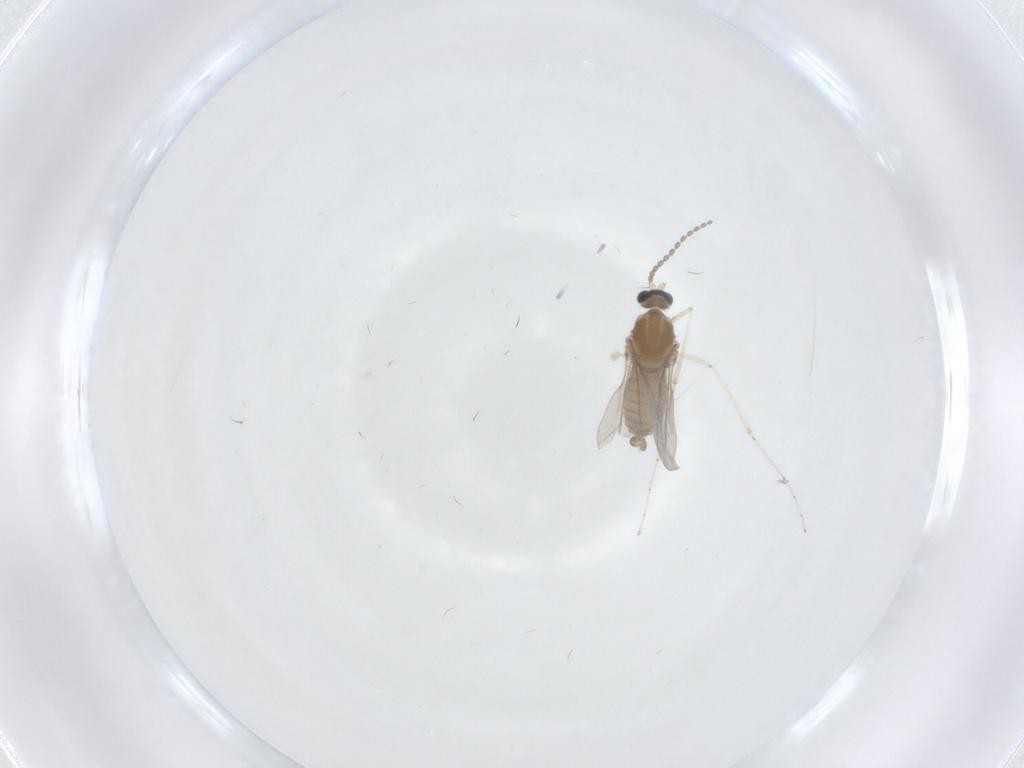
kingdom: Animalia
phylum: Arthropoda
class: Insecta
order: Diptera
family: Cecidomyiidae
